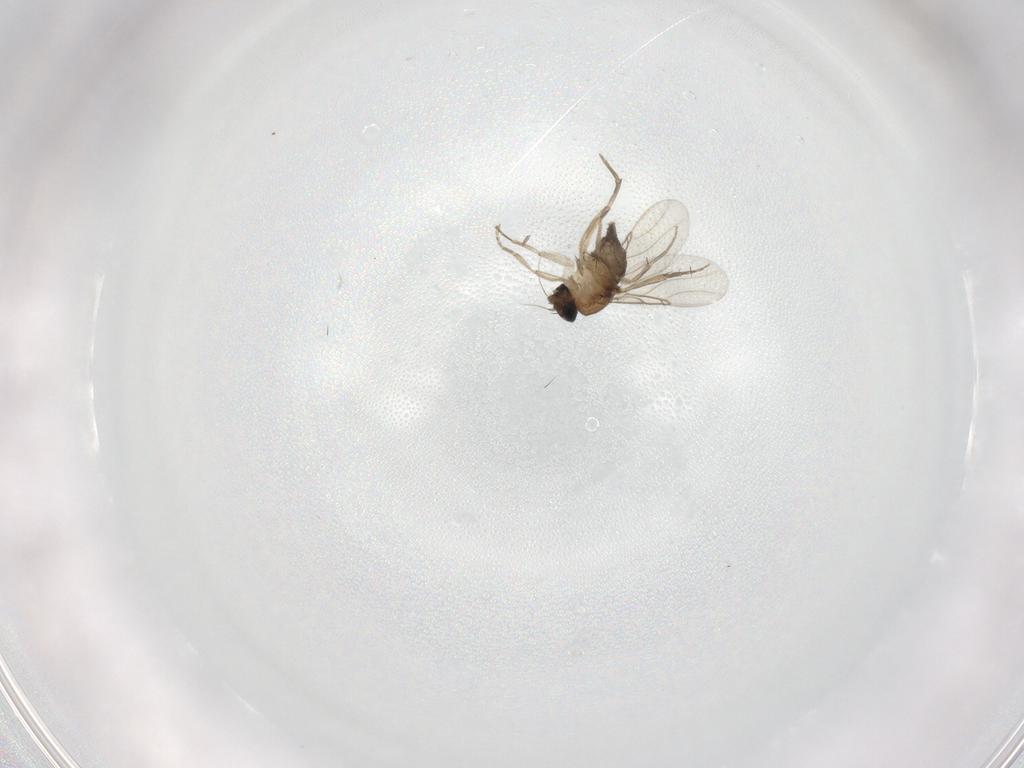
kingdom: Animalia
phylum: Arthropoda
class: Insecta
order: Diptera
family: Phoridae
